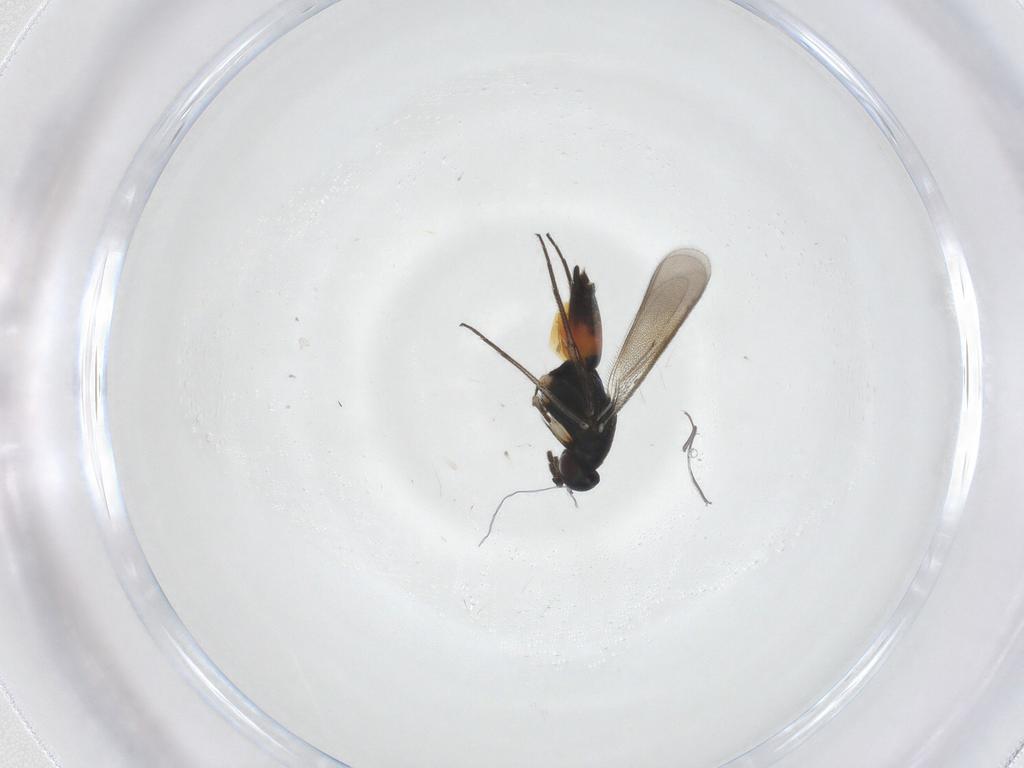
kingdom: Animalia
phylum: Arthropoda
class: Insecta
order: Hymenoptera
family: Eulophidae
